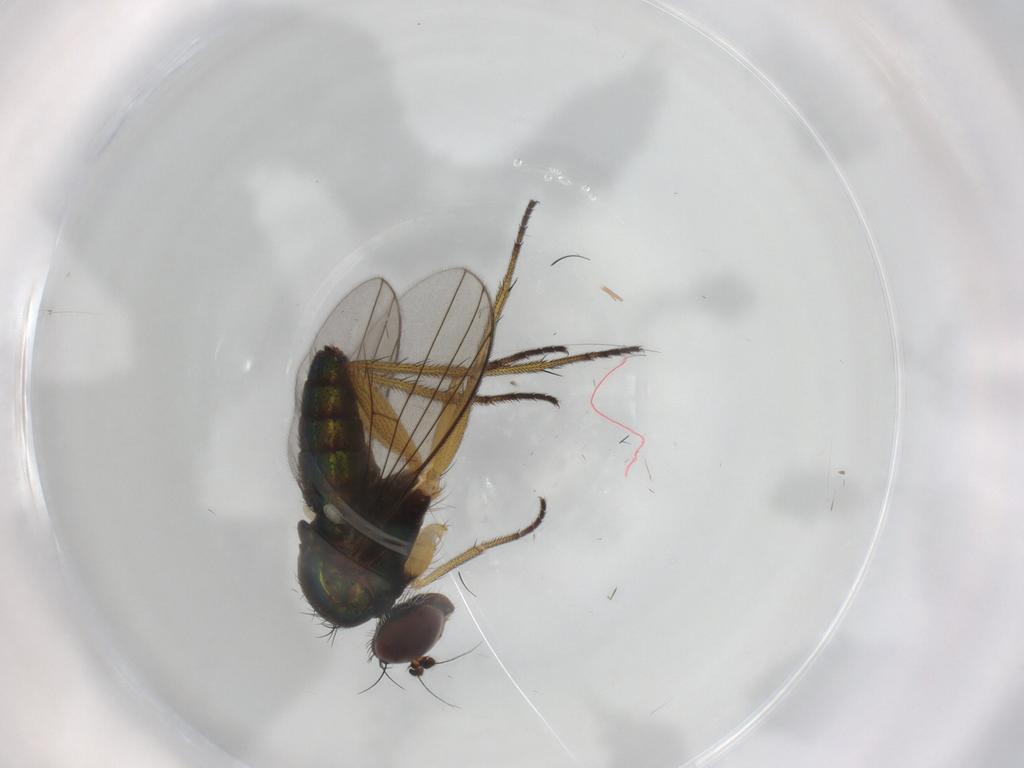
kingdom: Animalia
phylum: Arthropoda
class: Insecta
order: Diptera
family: Dolichopodidae
